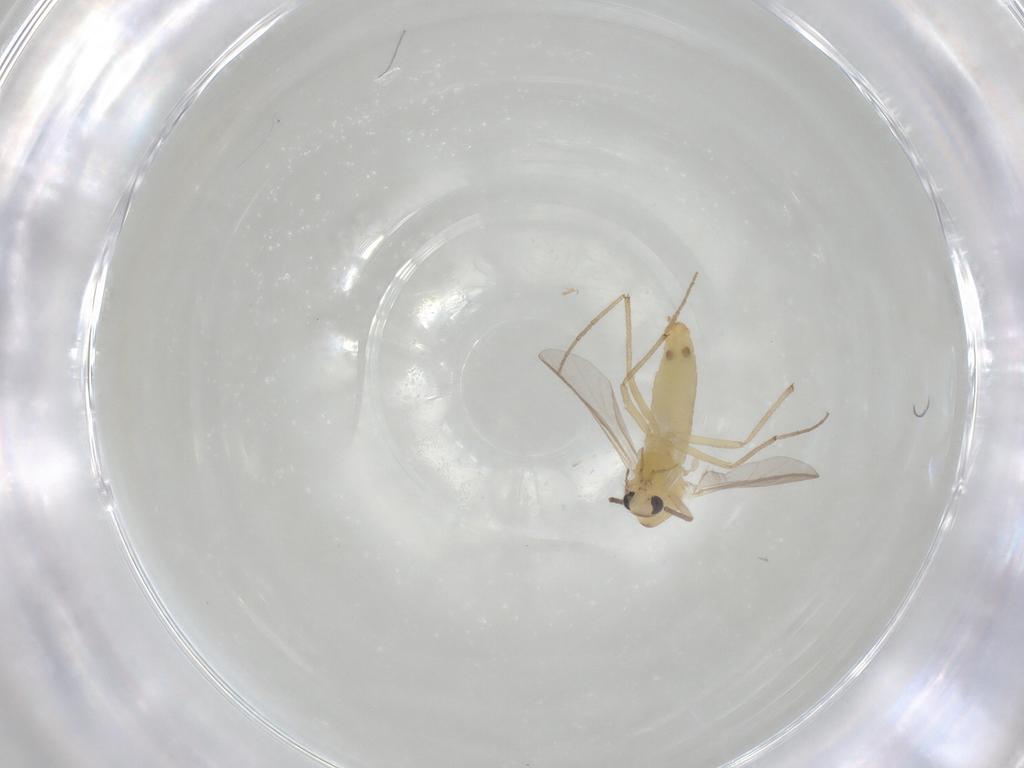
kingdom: Animalia
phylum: Arthropoda
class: Insecta
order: Diptera
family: Chironomidae
